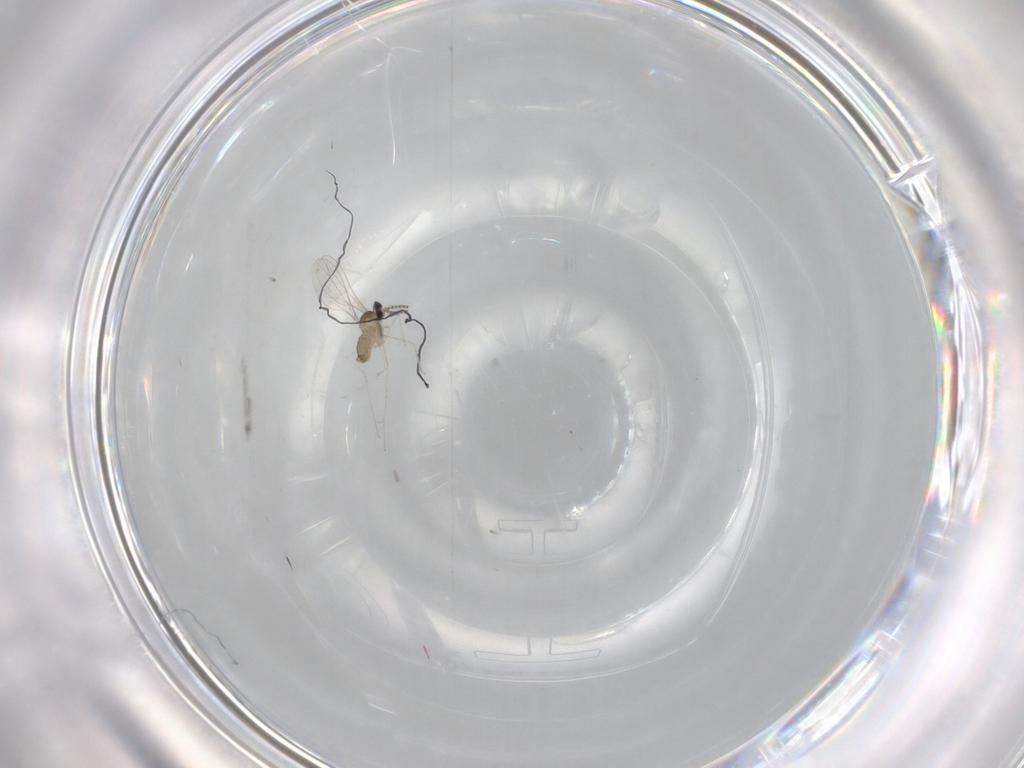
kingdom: Animalia
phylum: Arthropoda
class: Insecta
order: Diptera
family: Cecidomyiidae
